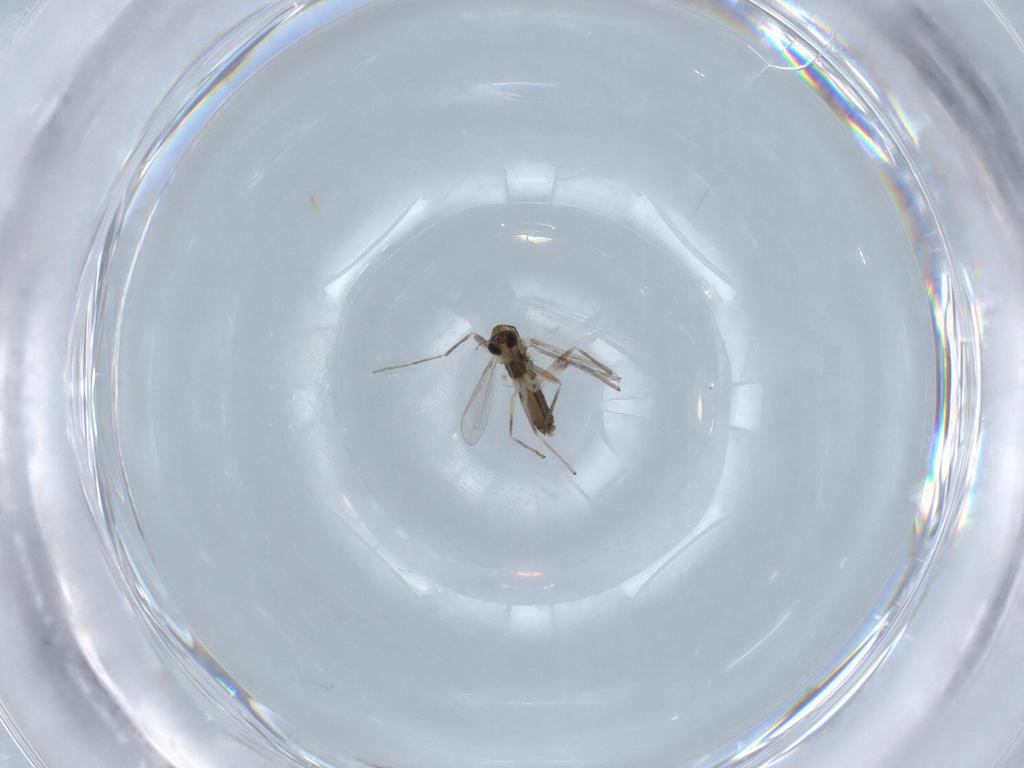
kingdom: Animalia
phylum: Arthropoda
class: Insecta
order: Diptera
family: Chironomidae
